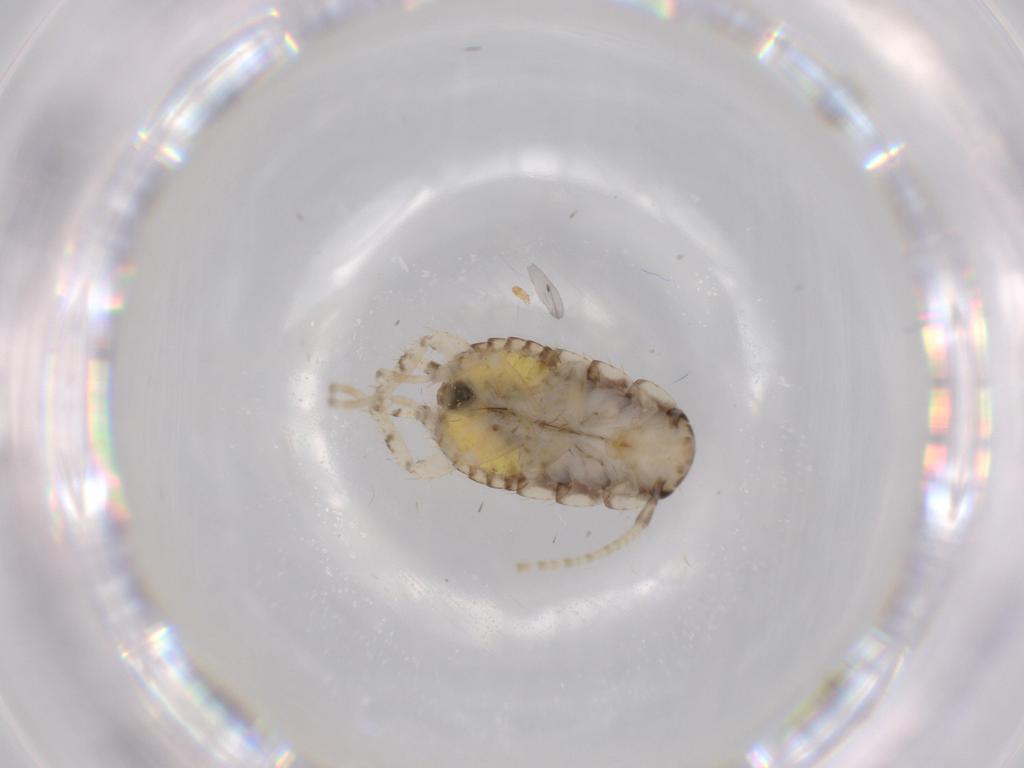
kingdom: Animalia
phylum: Arthropoda
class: Insecta
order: Blattodea
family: Ectobiidae
